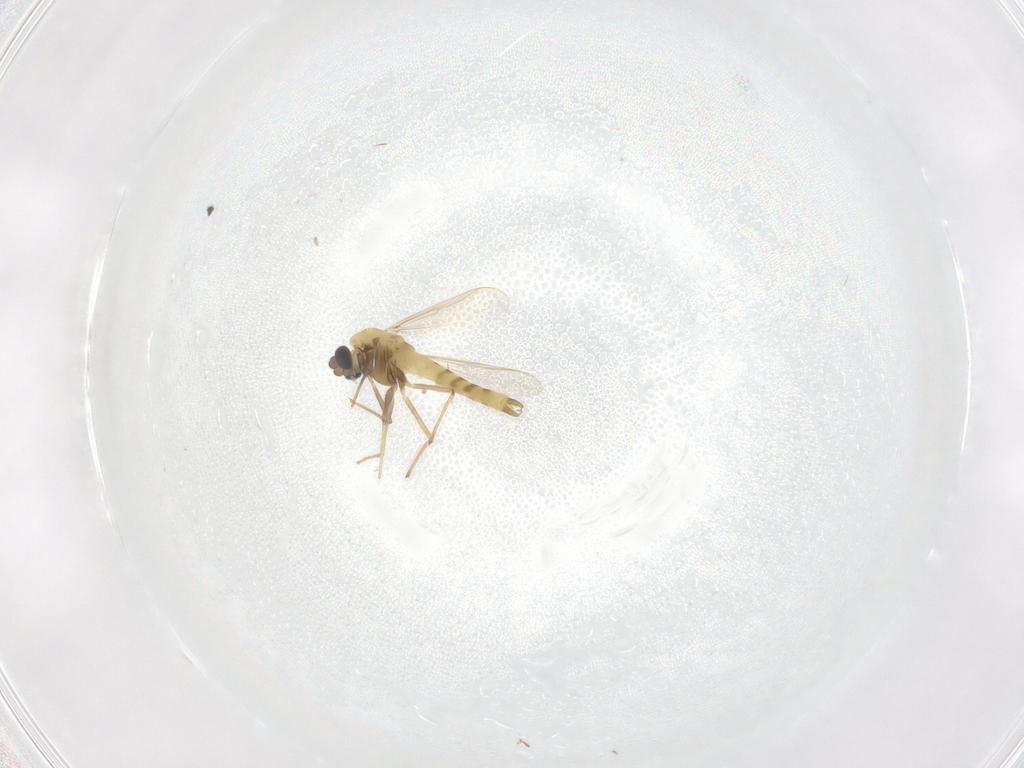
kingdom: Animalia
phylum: Arthropoda
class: Insecta
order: Diptera
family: Chironomidae
